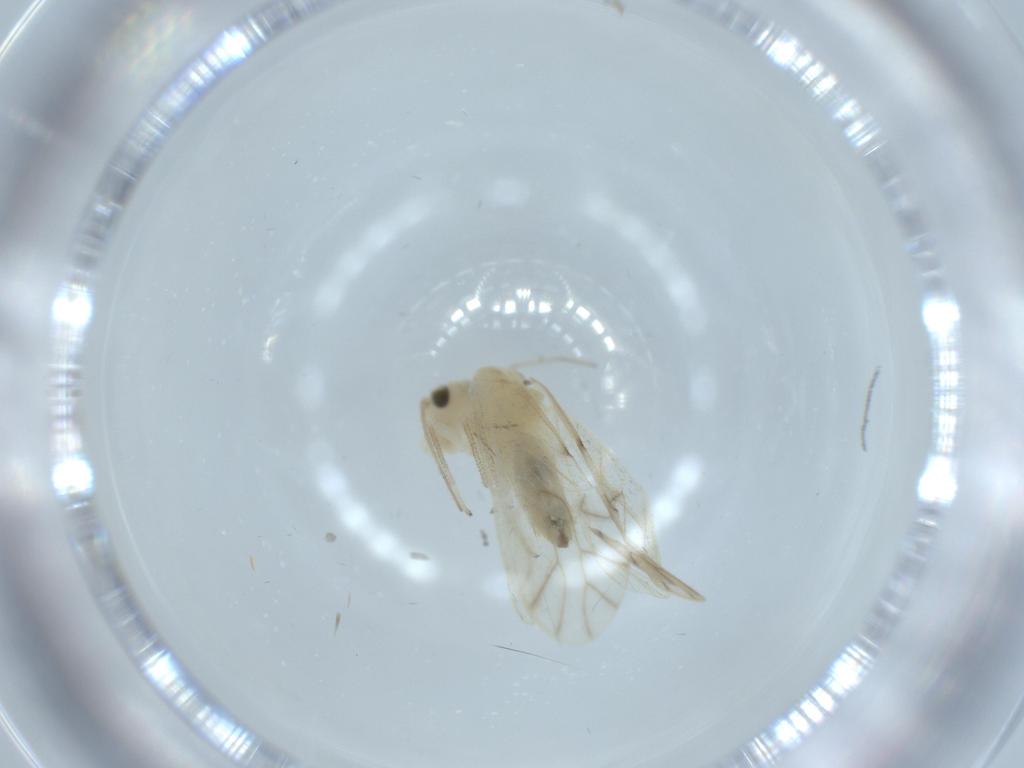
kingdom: Animalia
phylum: Arthropoda
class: Insecta
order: Psocodea
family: Caeciliusidae
